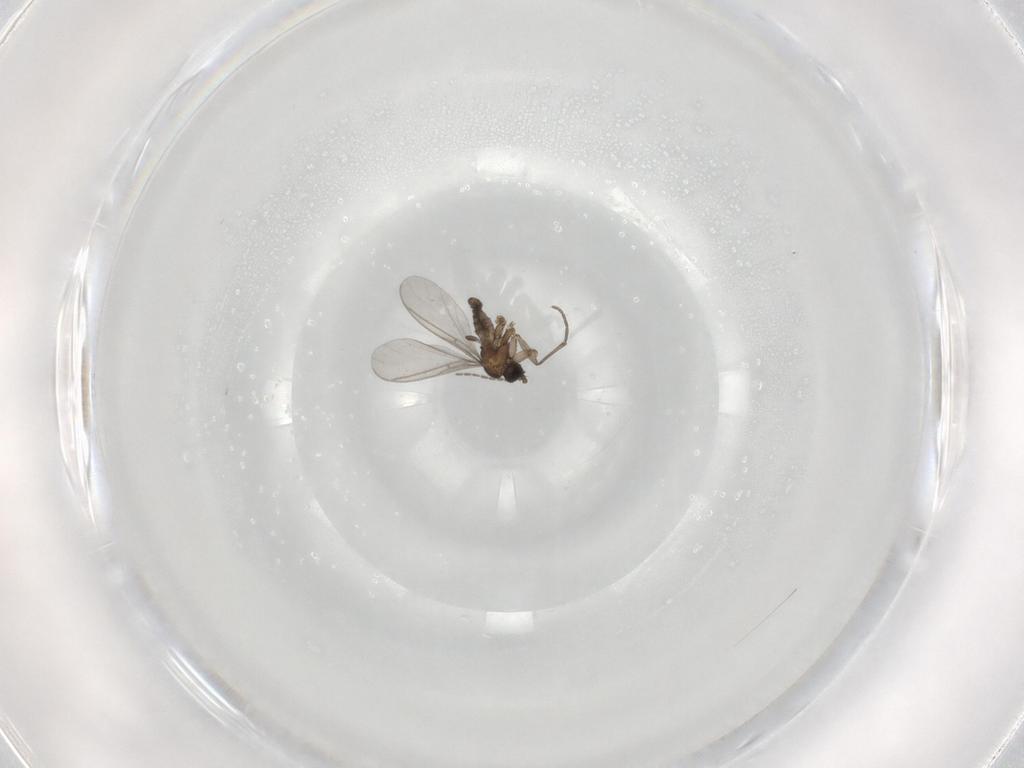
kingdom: Animalia
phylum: Arthropoda
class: Insecta
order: Diptera
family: Sciaridae
